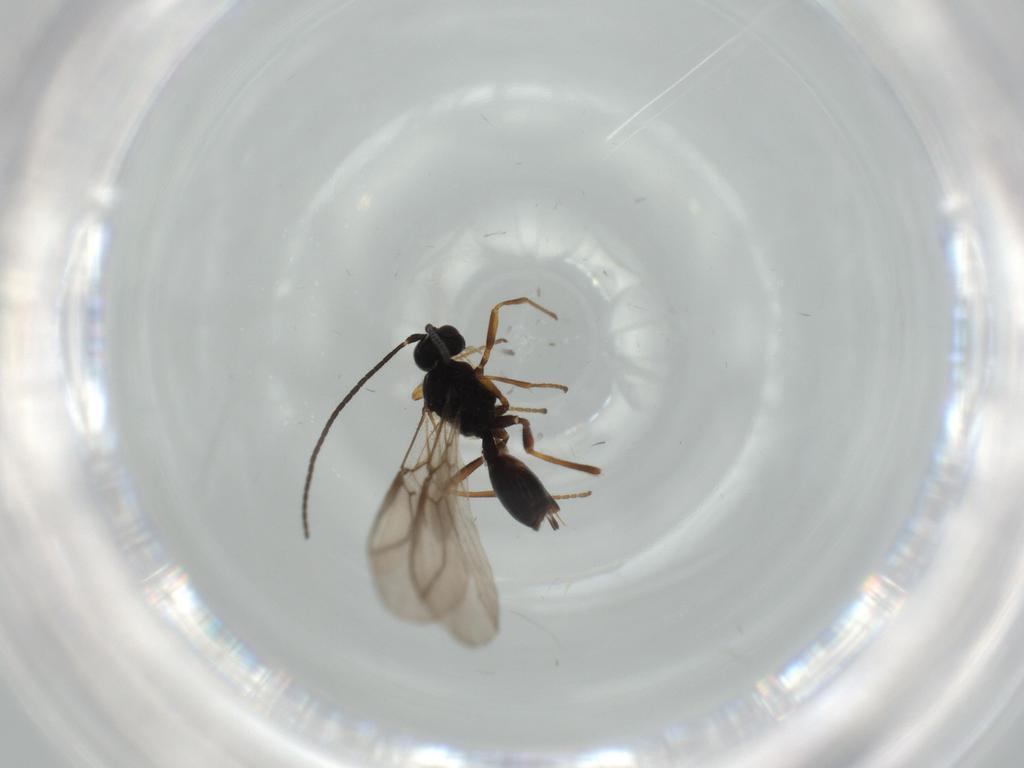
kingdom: Animalia
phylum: Arthropoda
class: Insecta
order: Hymenoptera
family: Braconidae
